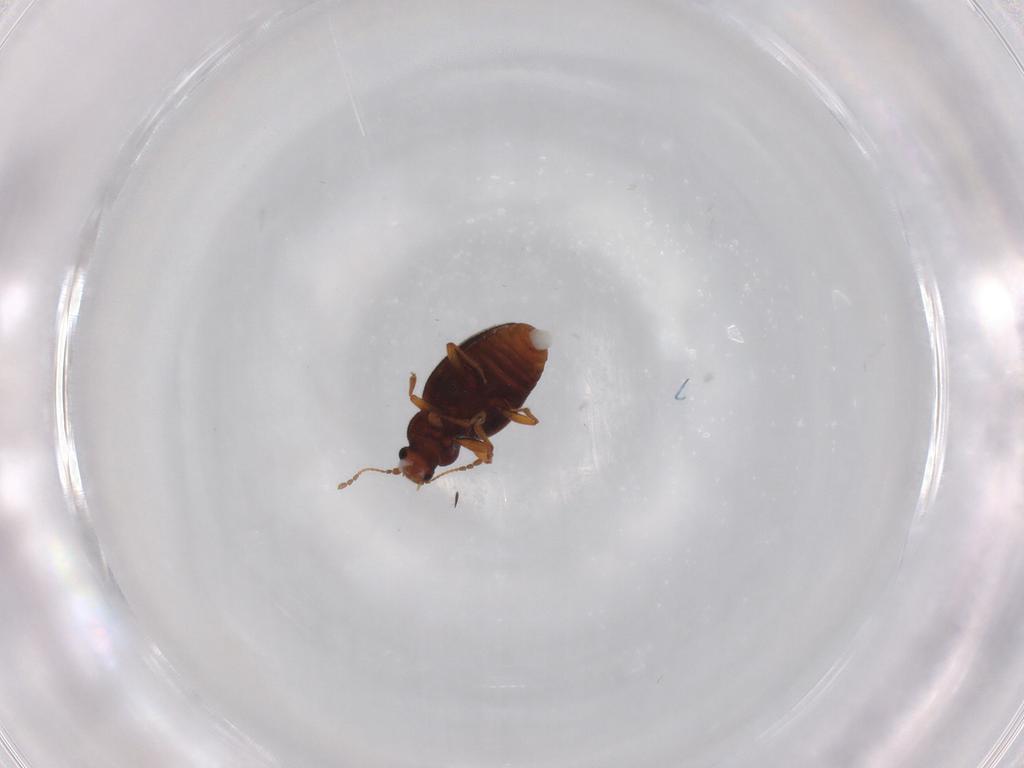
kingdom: Animalia
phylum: Arthropoda
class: Insecta
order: Coleoptera
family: Latridiidae
